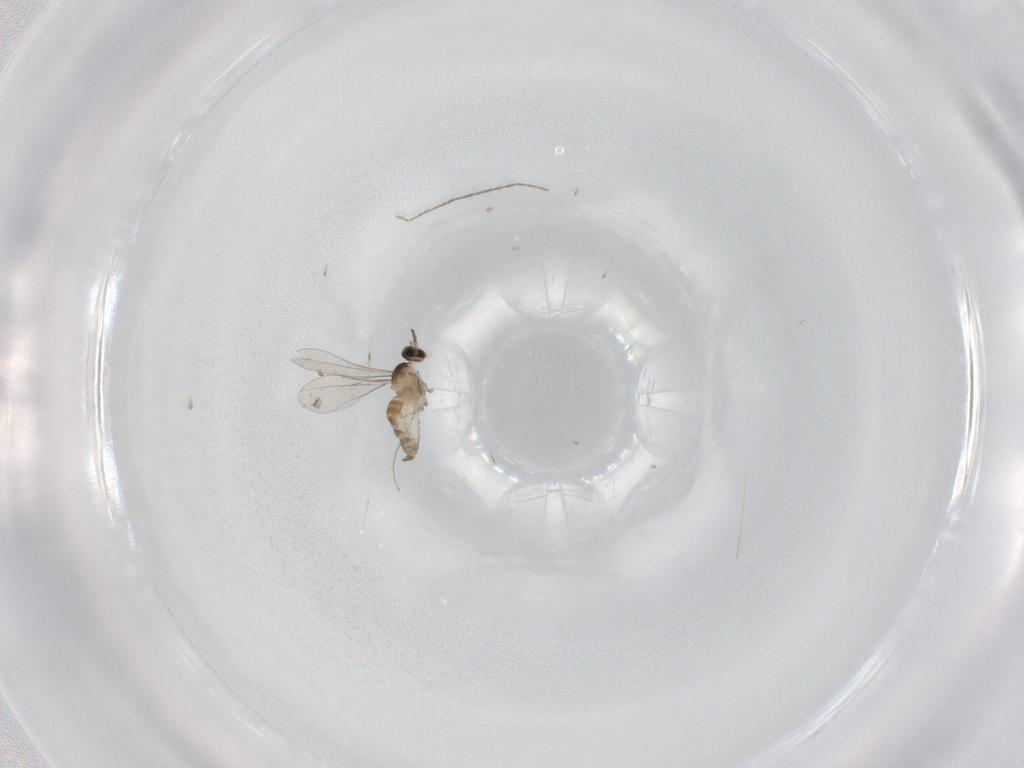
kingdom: Animalia
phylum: Arthropoda
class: Insecta
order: Diptera
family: Cecidomyiidae
